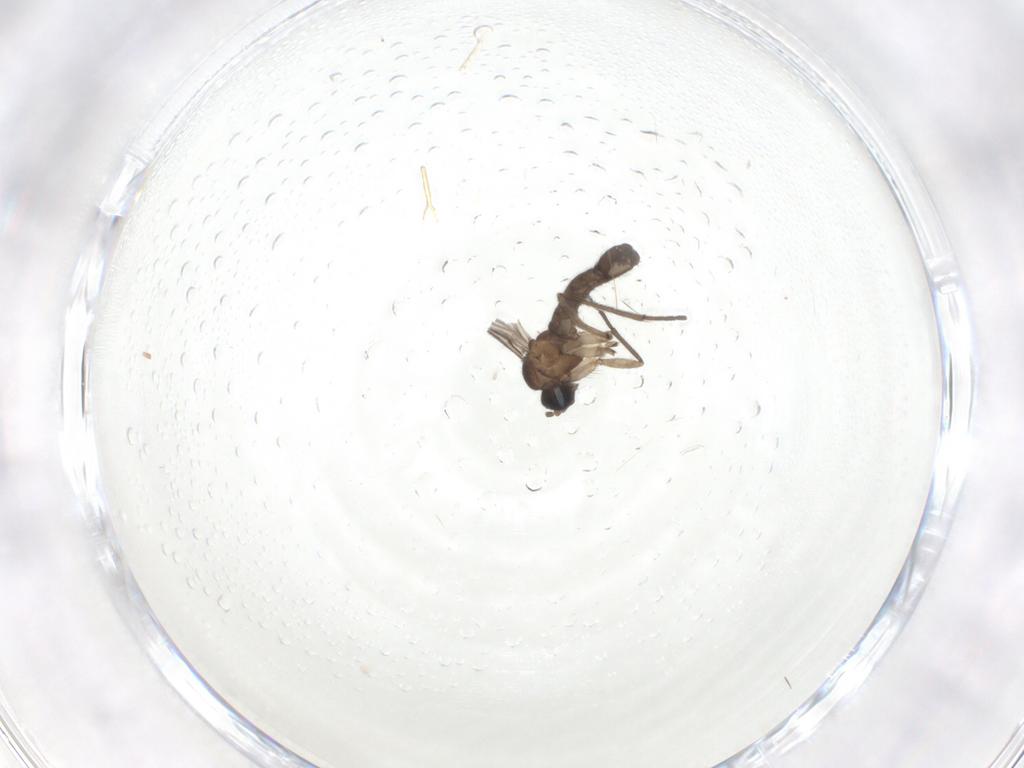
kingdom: Animalia
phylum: Arthropoda
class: Insecta
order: Diptera
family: Sciaridae
